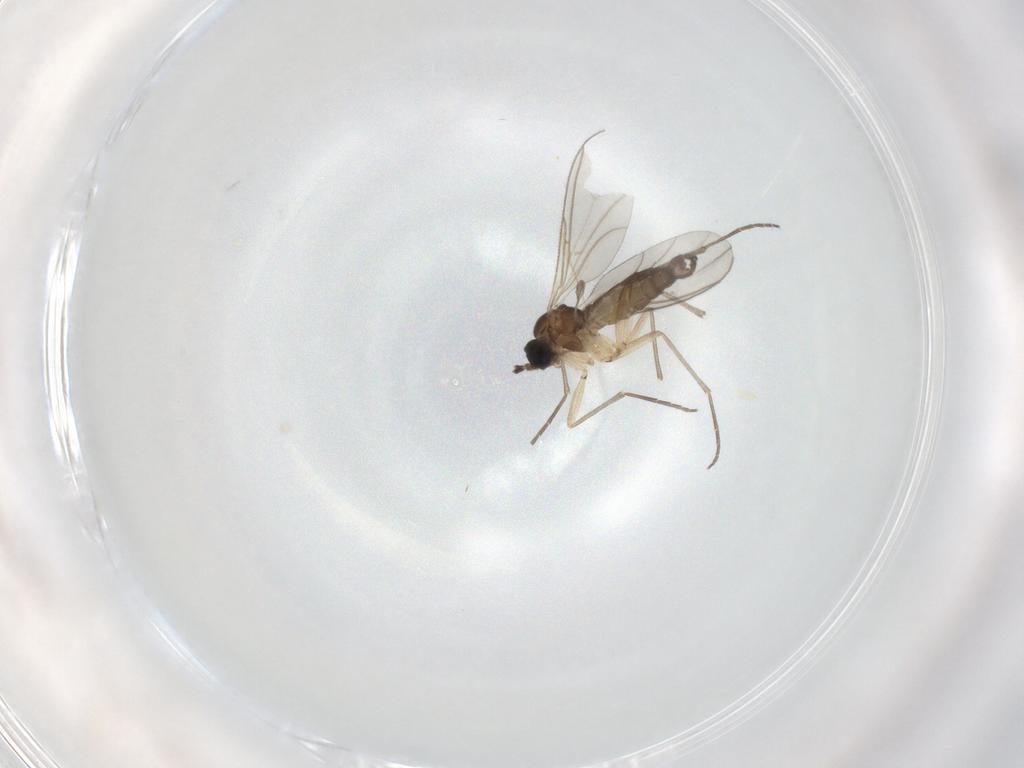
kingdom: Animalia
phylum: Arthropoda
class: Insecta
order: Diptera
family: Sciaridae
